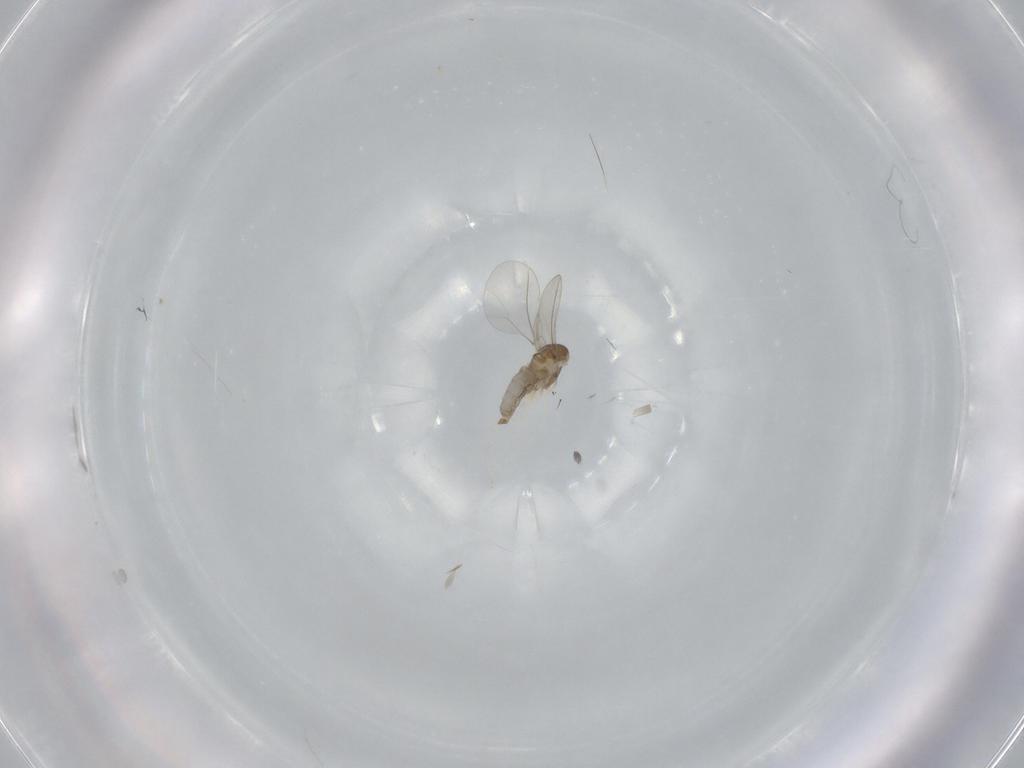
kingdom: Animalia
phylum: Arthropoda
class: Insecta
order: Diptera
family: Cecidomyiidae
